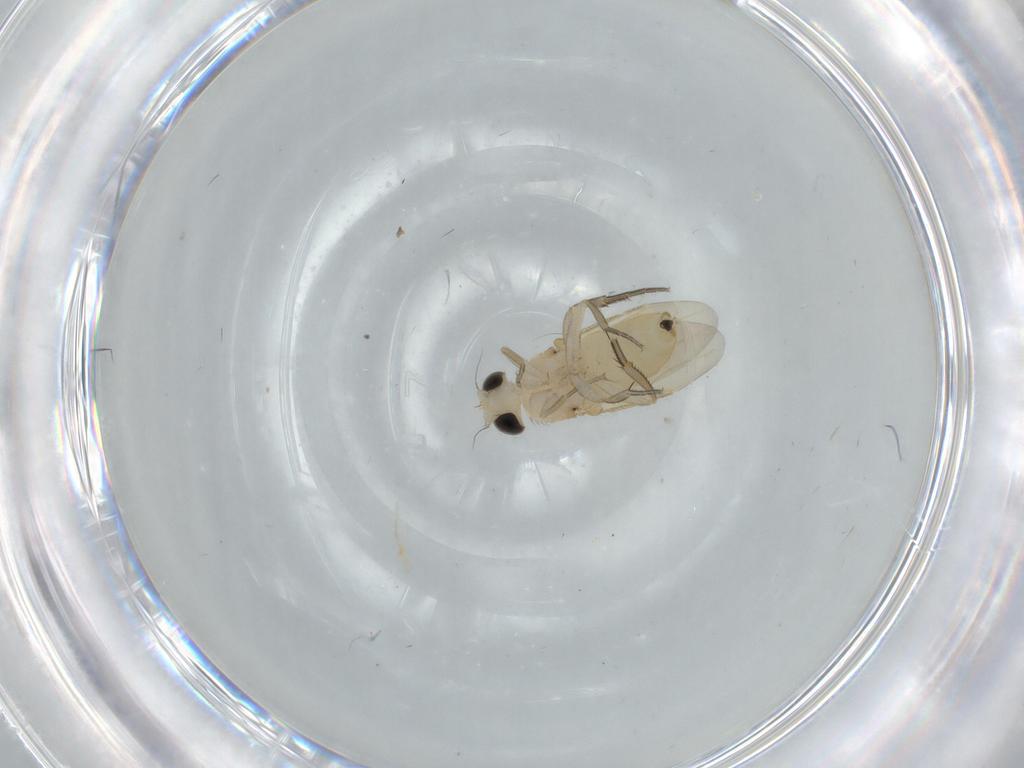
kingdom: Animalia
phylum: Arthropoda
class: Insecta
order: Diptera
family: Therevidae
